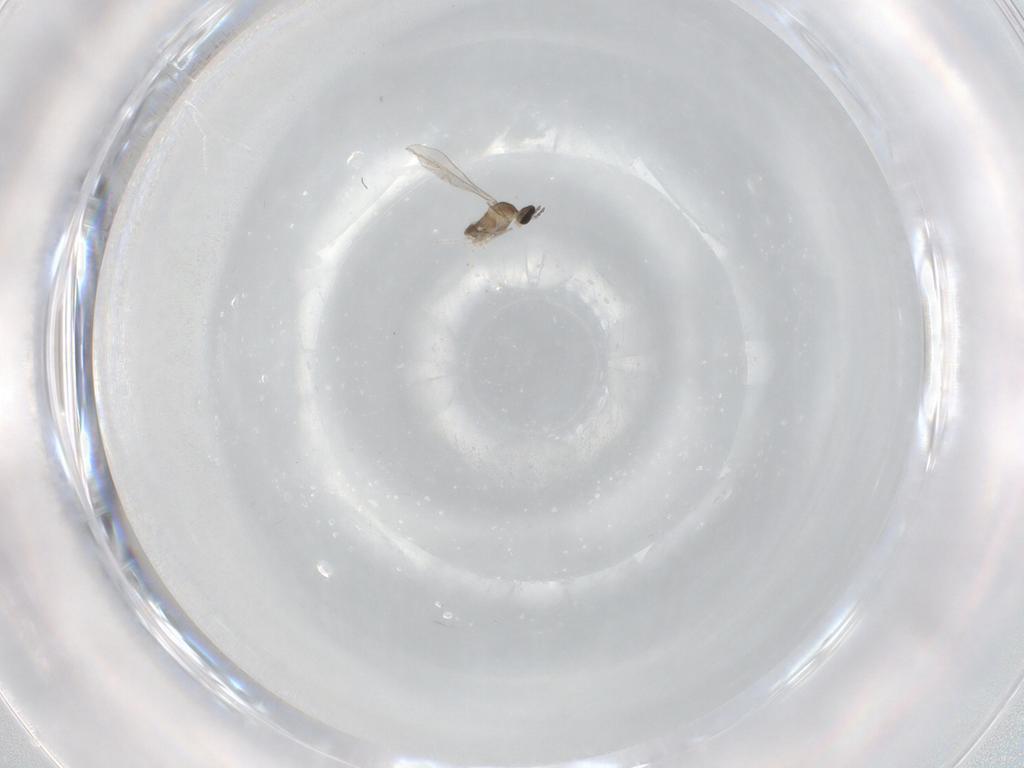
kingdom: Animalia
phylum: Arthropoda
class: Insecta
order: Diptera
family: Cecidomyiidae
